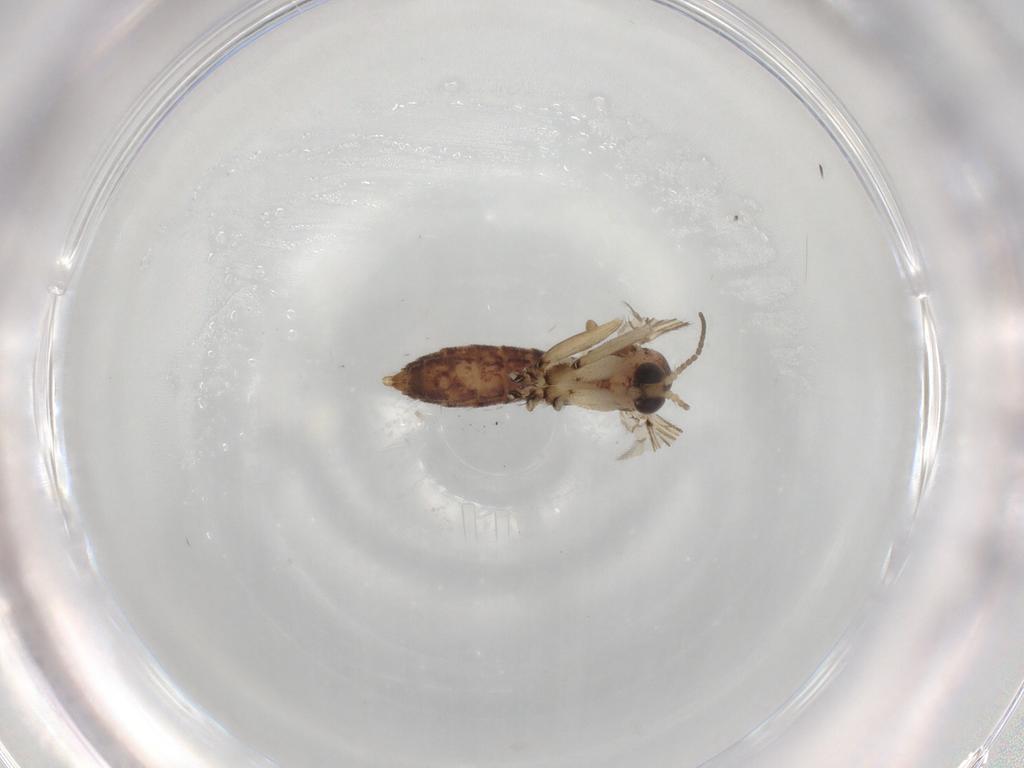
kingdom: Animalia
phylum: Arthropoda
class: Insecta
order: Diptera
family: Mycetophilidae
